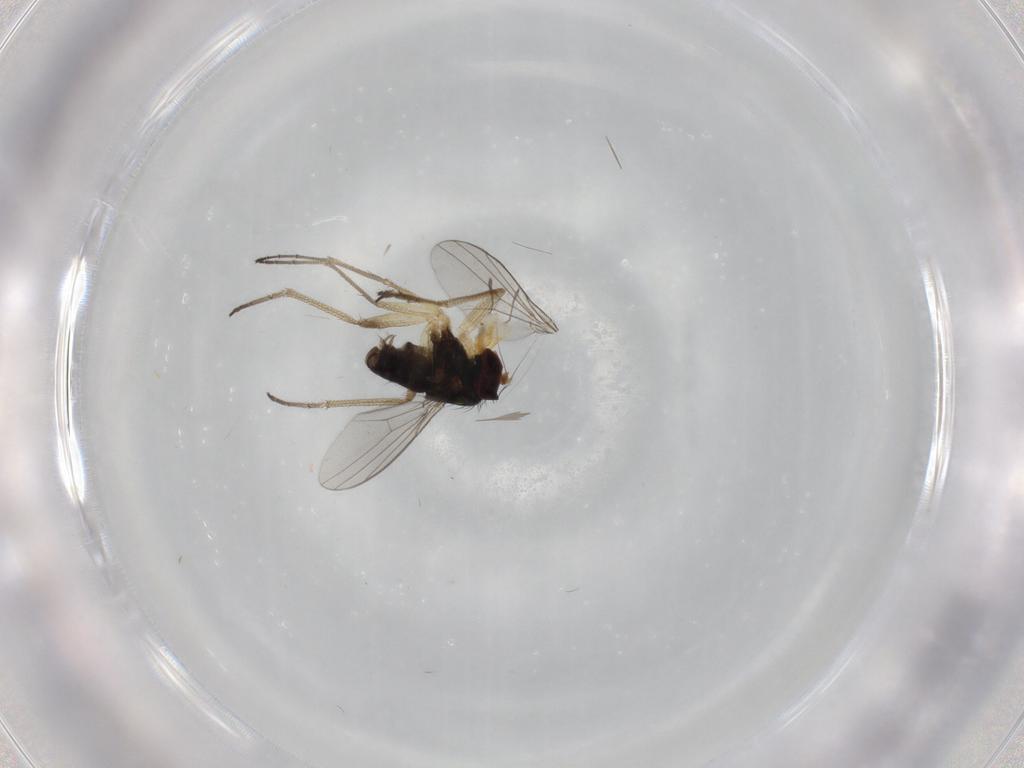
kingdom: Animalia
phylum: Arthropoda
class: Insecta
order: Diptera
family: Dolichopodidae
